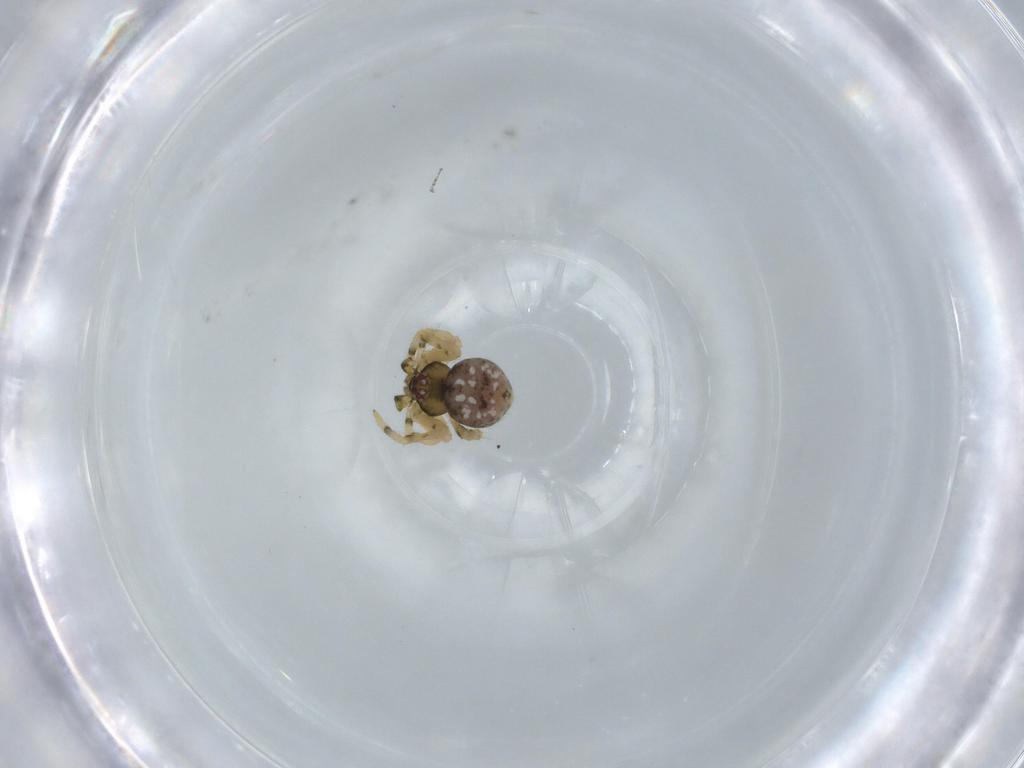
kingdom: Animalia
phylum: Arthropoda
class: Arachnida
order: Araneae
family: Theridiidae
